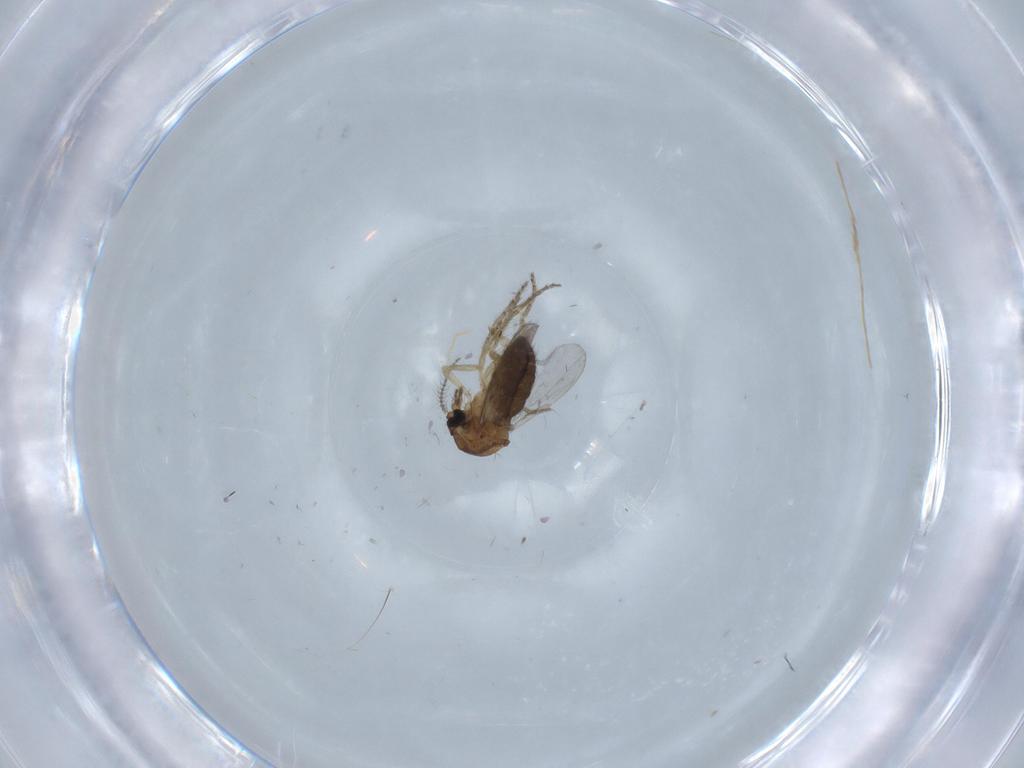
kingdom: Animalia
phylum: Arthropoda
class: Insecta
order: Diptera
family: Ceratopogonidae
